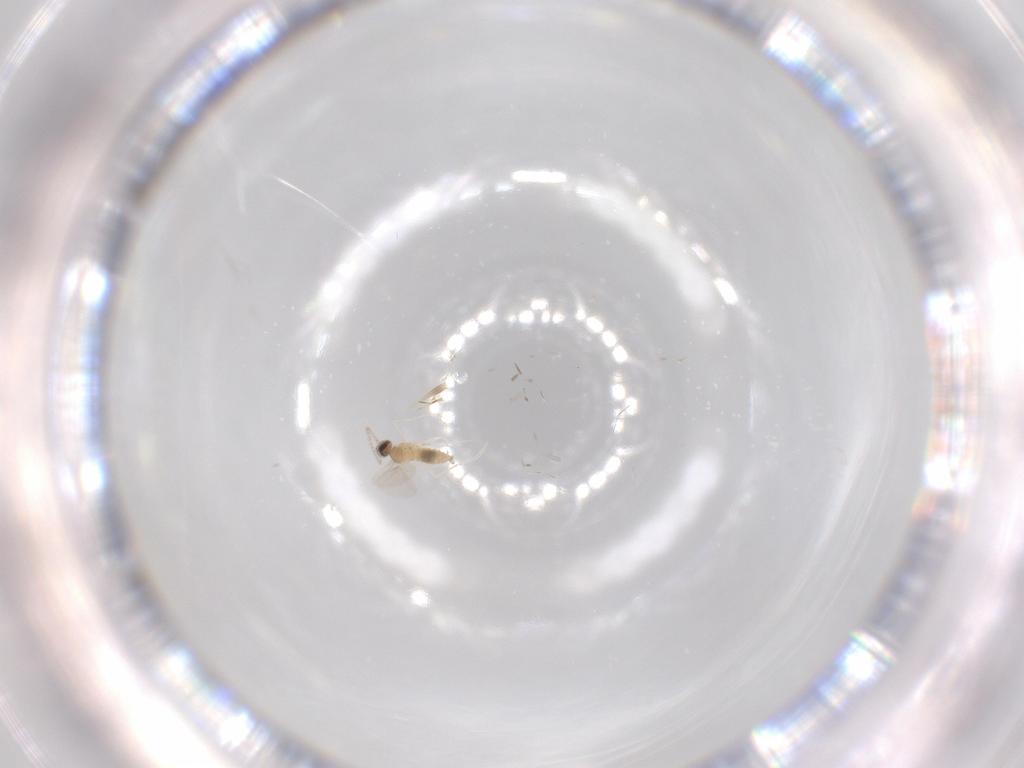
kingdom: Animalia
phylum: Arthropoda
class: Insecta
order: Diptera
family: Cecidomyiidae
